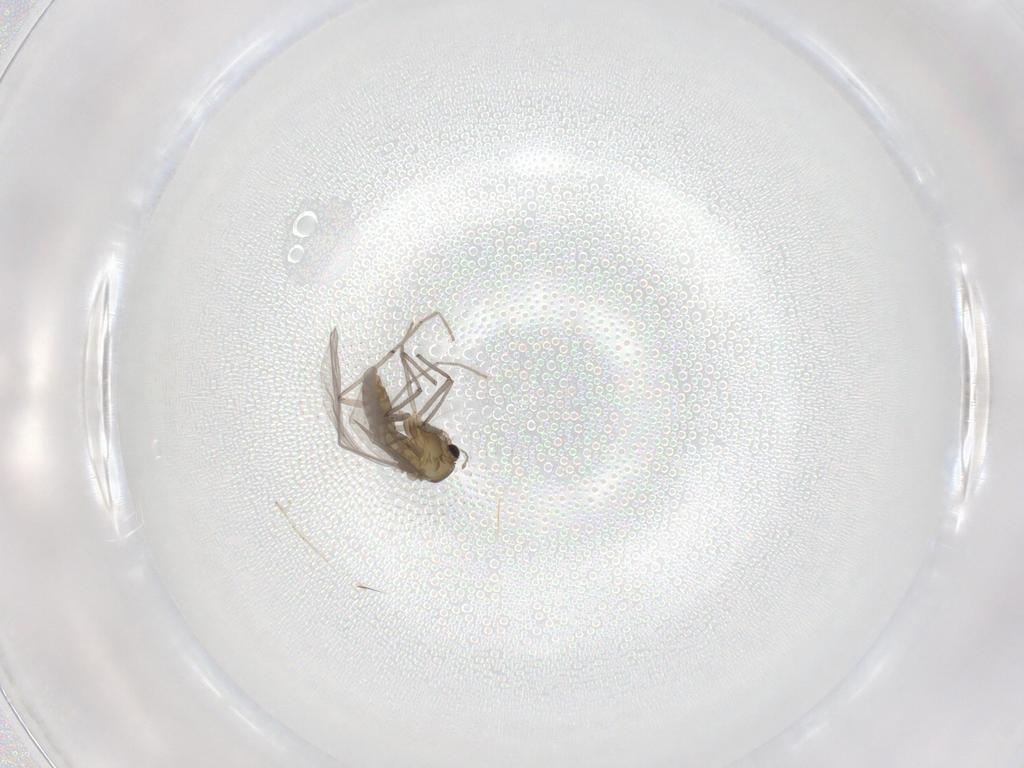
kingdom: Animalia
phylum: Arthropoda
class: Insecta
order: Diptera
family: Chironomidae
